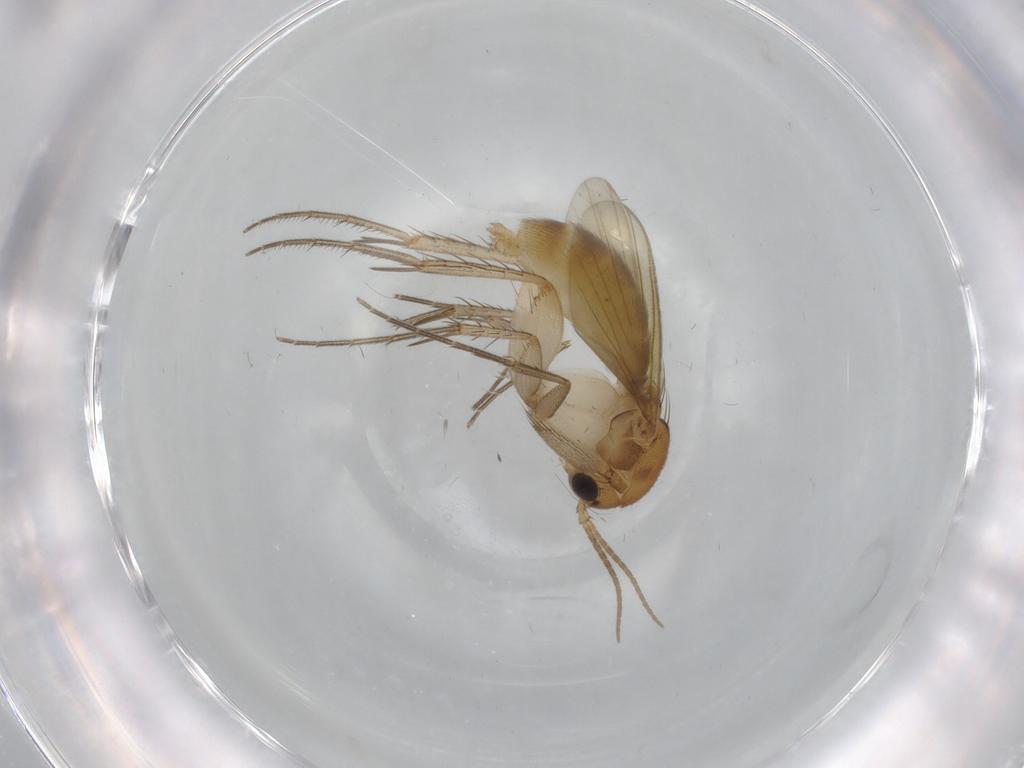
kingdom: Animalia
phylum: Arthropoda
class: Insecta
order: Diptera
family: Mycetophilidae
